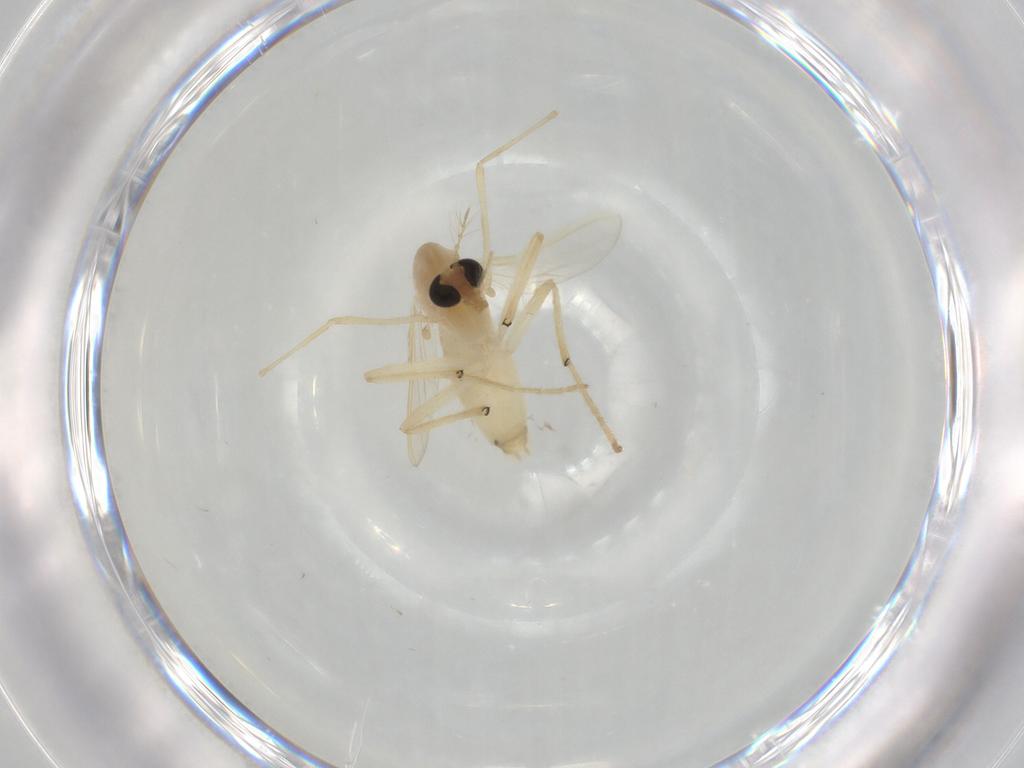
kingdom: Animalia
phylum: Arthropoda
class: Insecta
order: Diptera
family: Chironomidae
